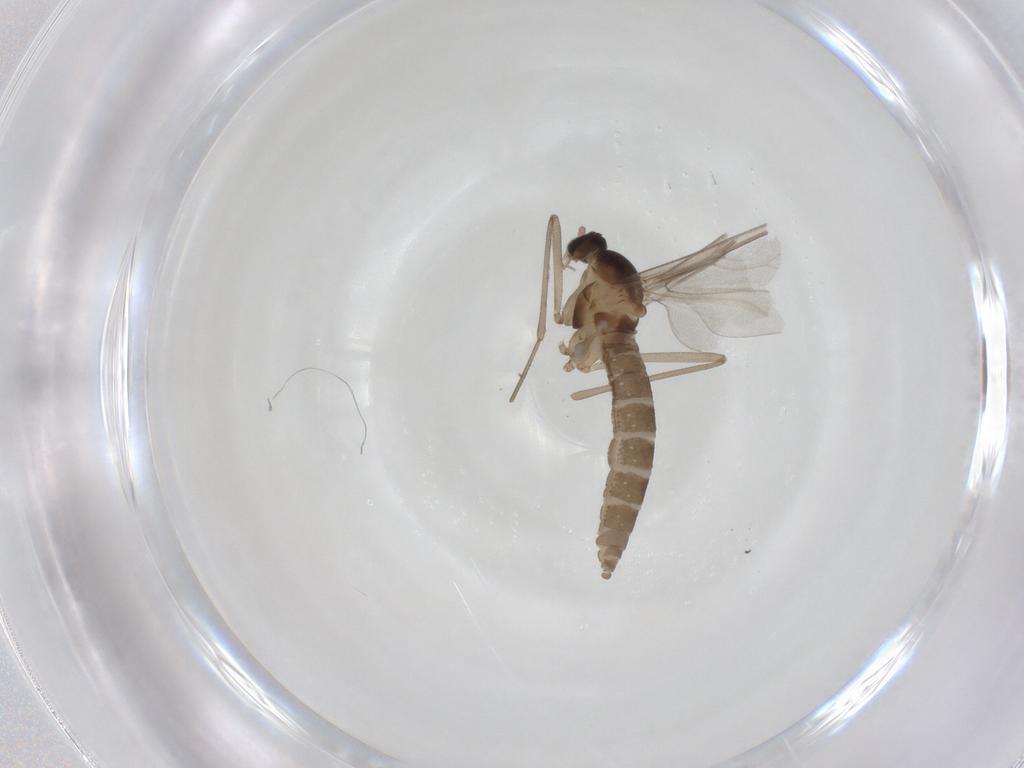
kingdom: Animalia
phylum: Arthropoda
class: Insecta
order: Diptera
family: Cecidomyiidae
